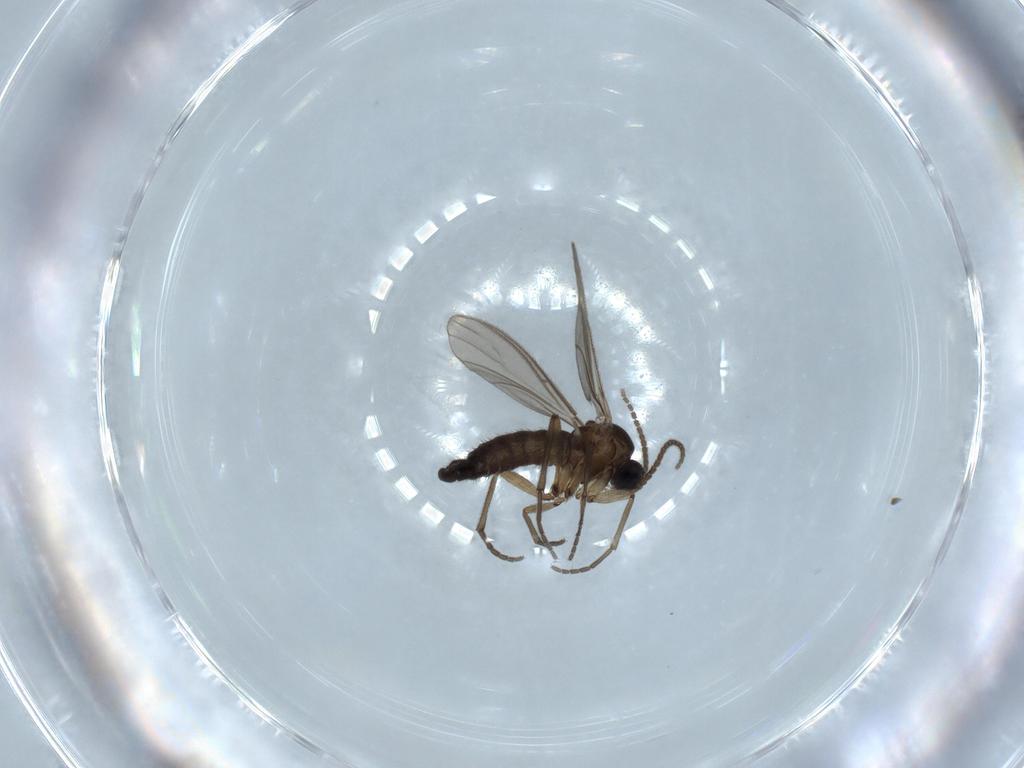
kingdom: Animalia
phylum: Arthropoda
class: Insecta
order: Diptera
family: Sciaridae
